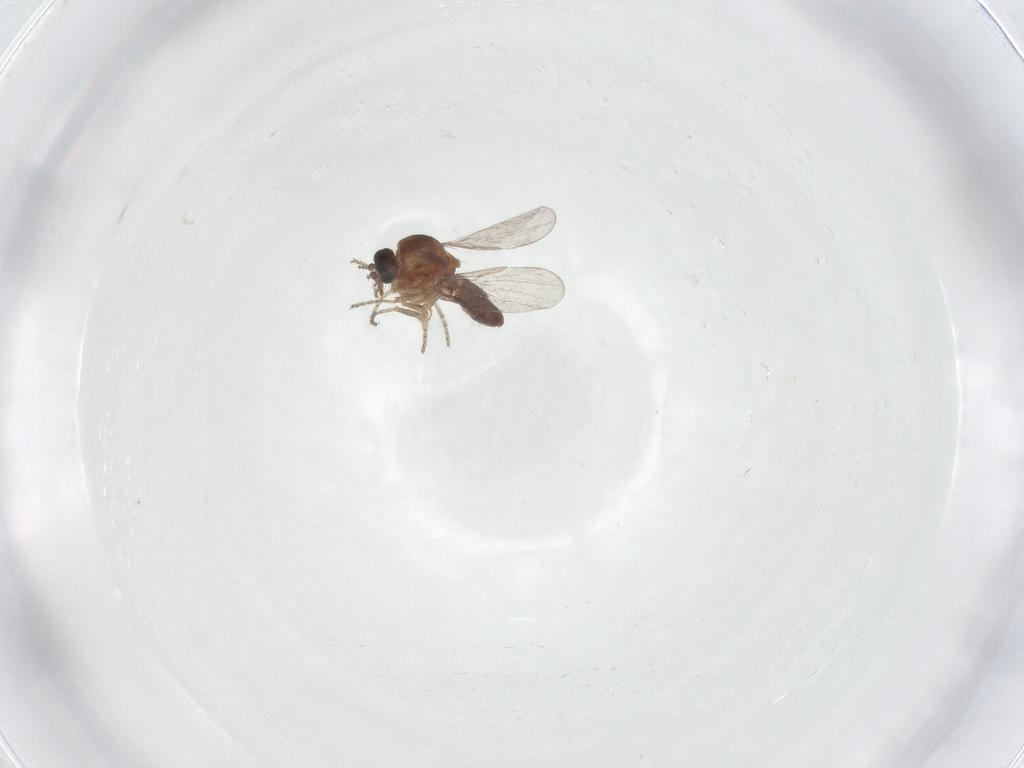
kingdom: Animalia
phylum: Arthropoda
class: Insecta
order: Diptera
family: Ceratopogonidae
